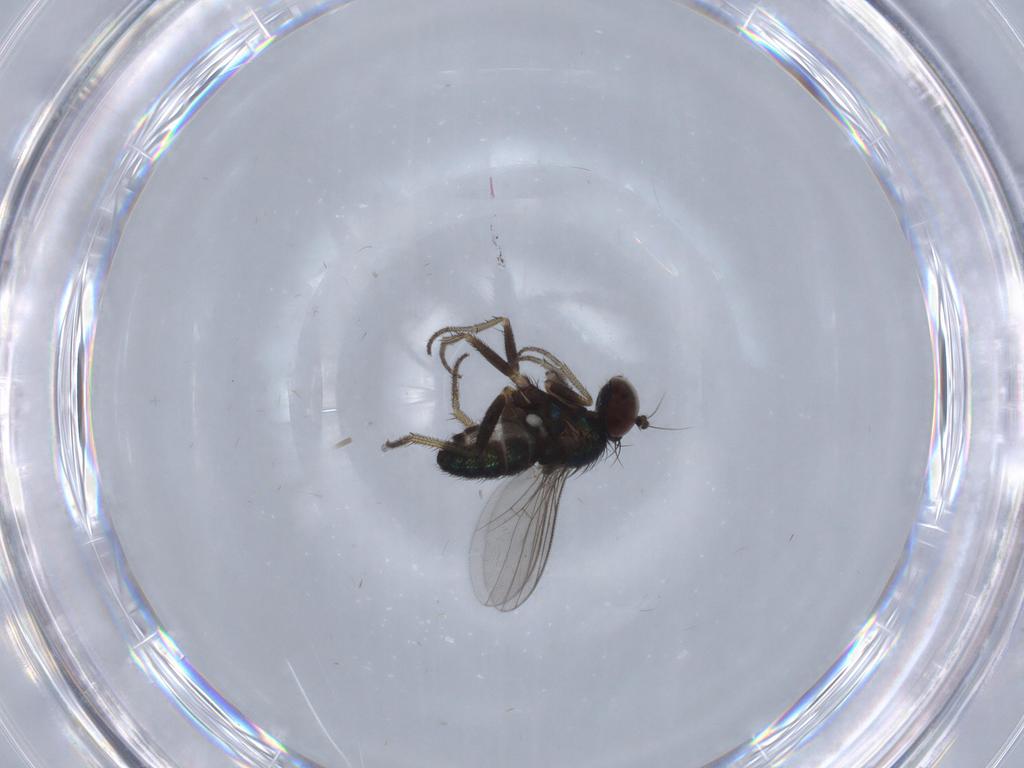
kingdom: Animalia
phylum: Arthropoda
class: Insecta
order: Diptera
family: Dolichopodidae
